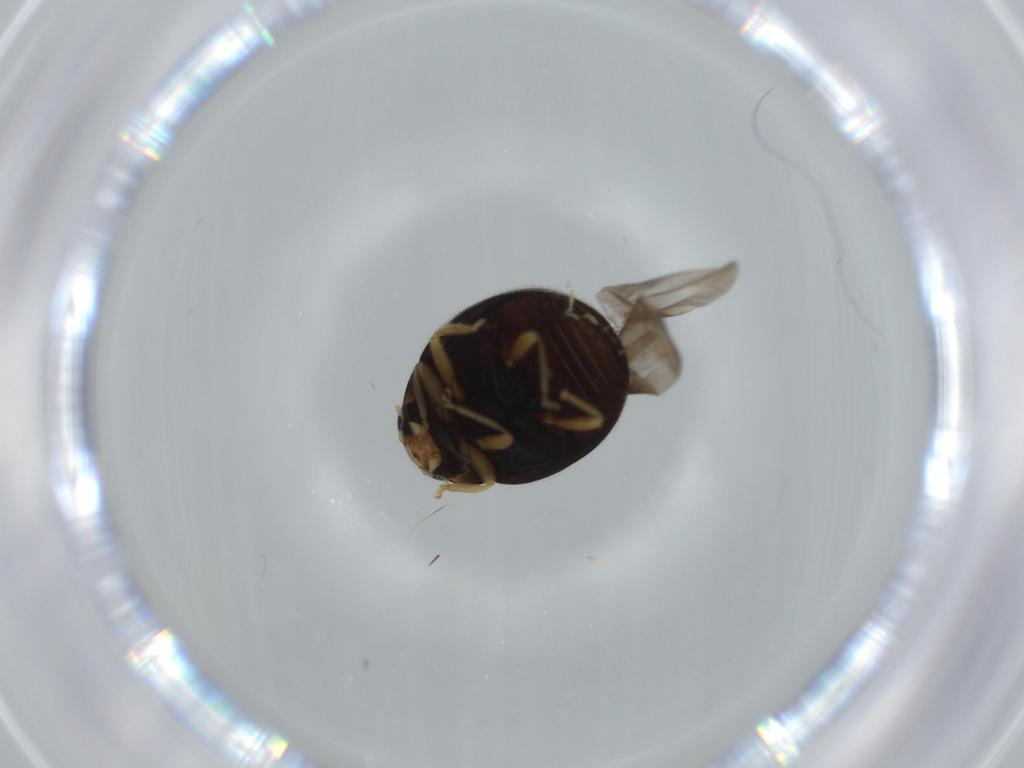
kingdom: Animalia
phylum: Arthropoda
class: Insecta
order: Coleoptera
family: Coccinellidae
